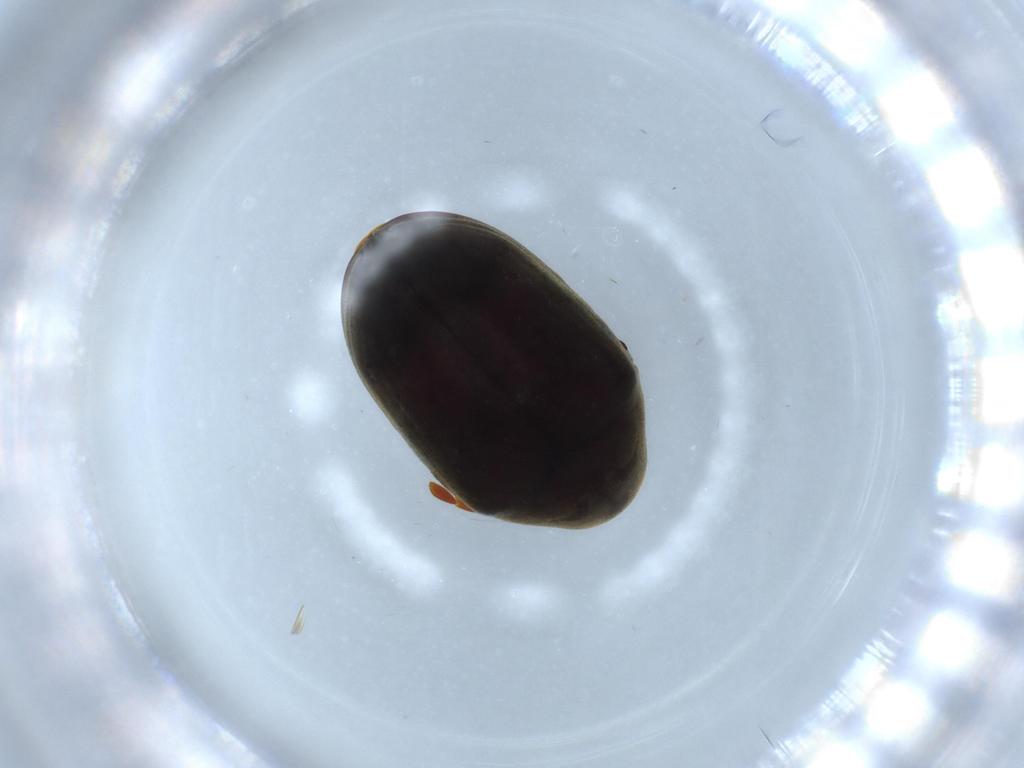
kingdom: Animalia
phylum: Arthropoda
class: Insecta
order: Coleoptera
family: Ptinidae
